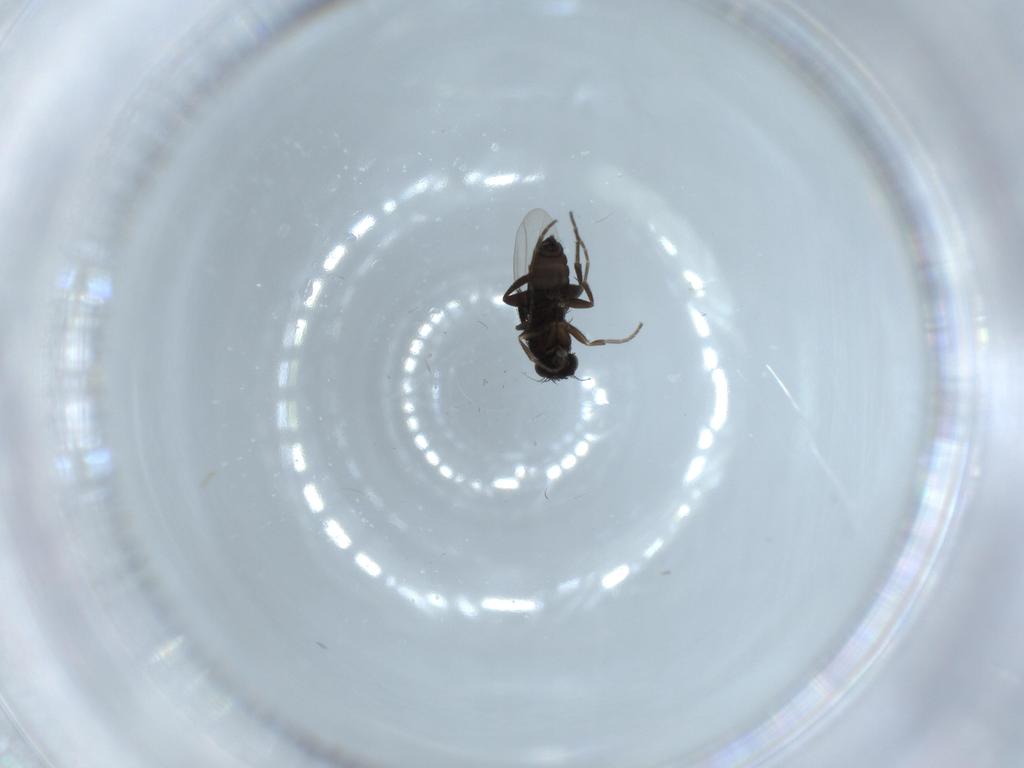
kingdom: Animalia
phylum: Arthropoda
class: Insecta
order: Diptera
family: Phoridae
